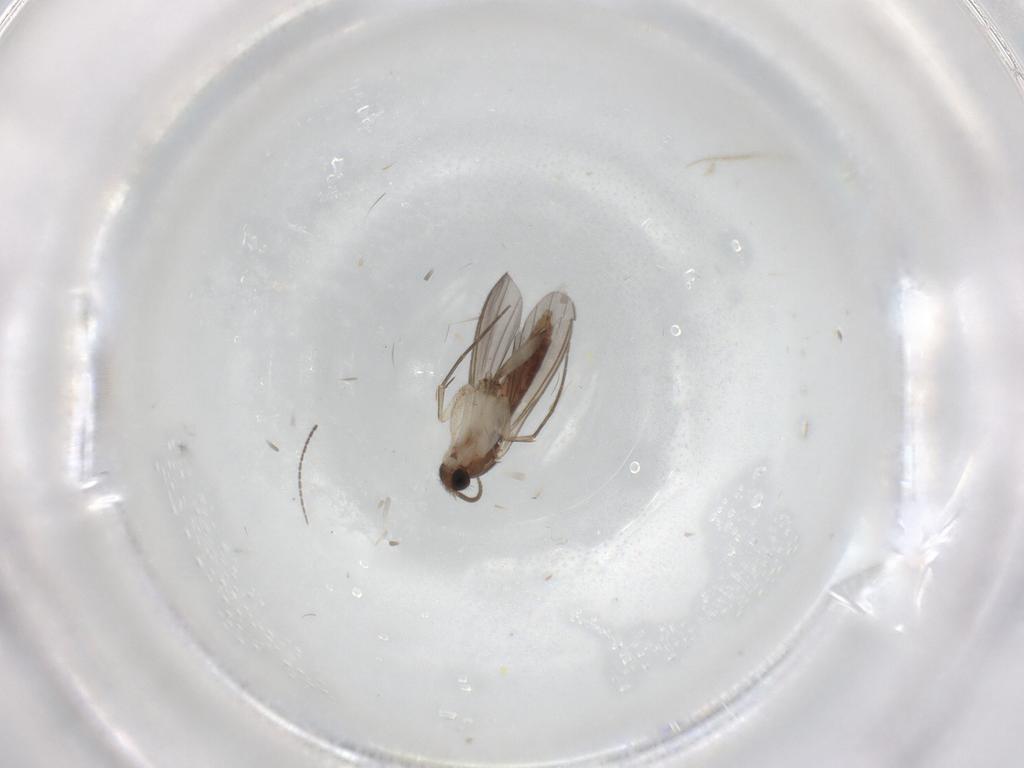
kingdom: Animalia
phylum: Arthropoda
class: Insecta
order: Diptera
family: Mycetophilidae
